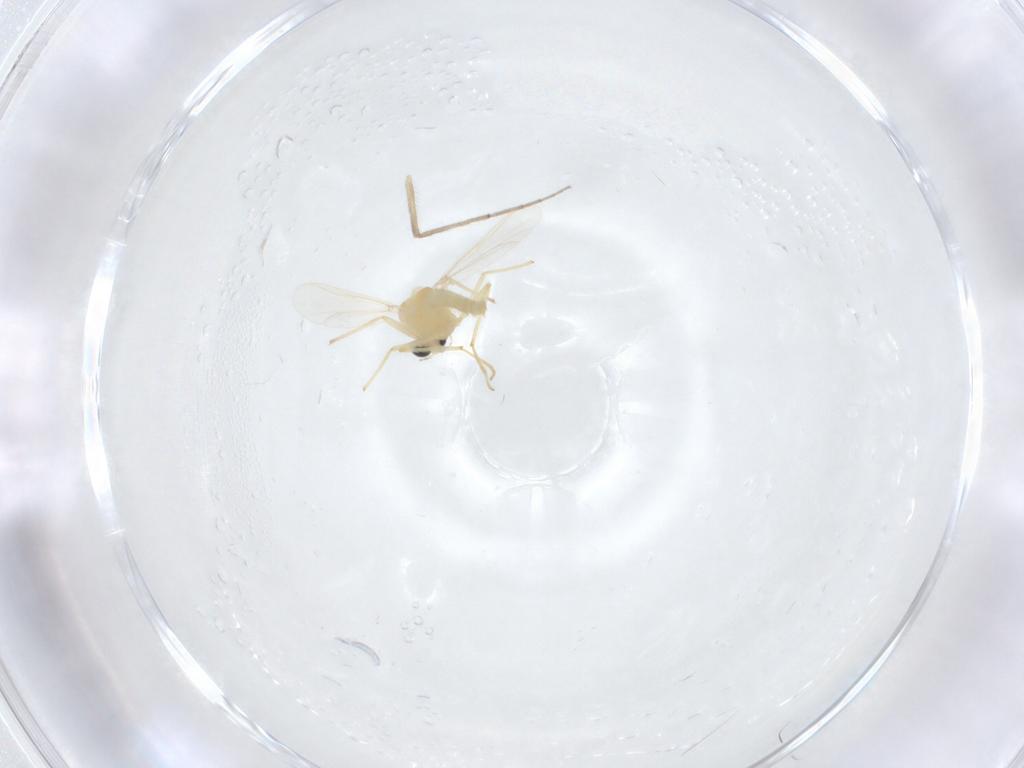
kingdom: Animalia
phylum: Arthropoda
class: Insecta
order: Diptera
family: Chironomidae
